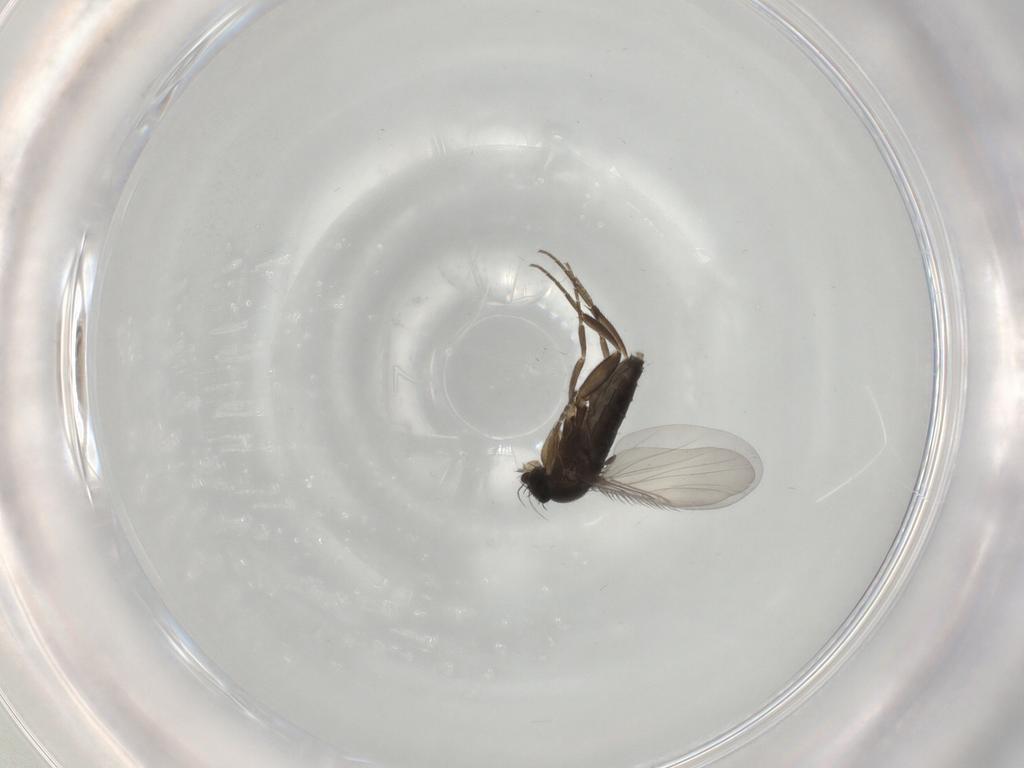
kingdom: Animalia
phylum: Arthropoda
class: Insecta
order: Diptera
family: Phoridae
